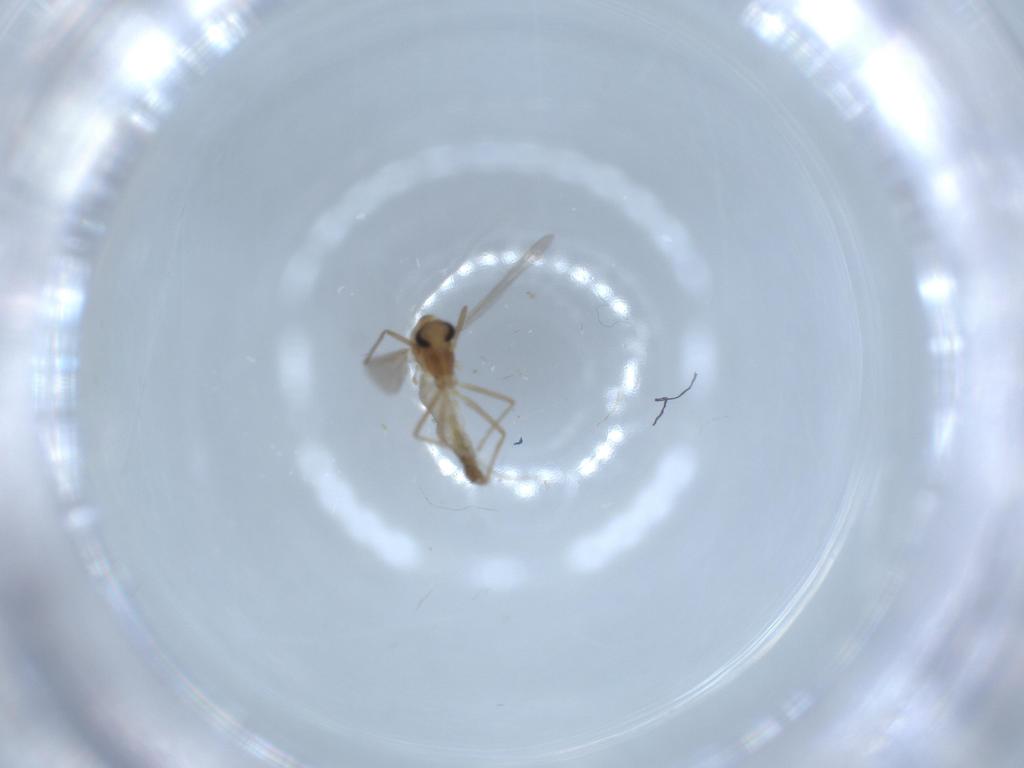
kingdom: Animalia
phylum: Arthropoda
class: Insecta
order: Diptera
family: Chironomidae
